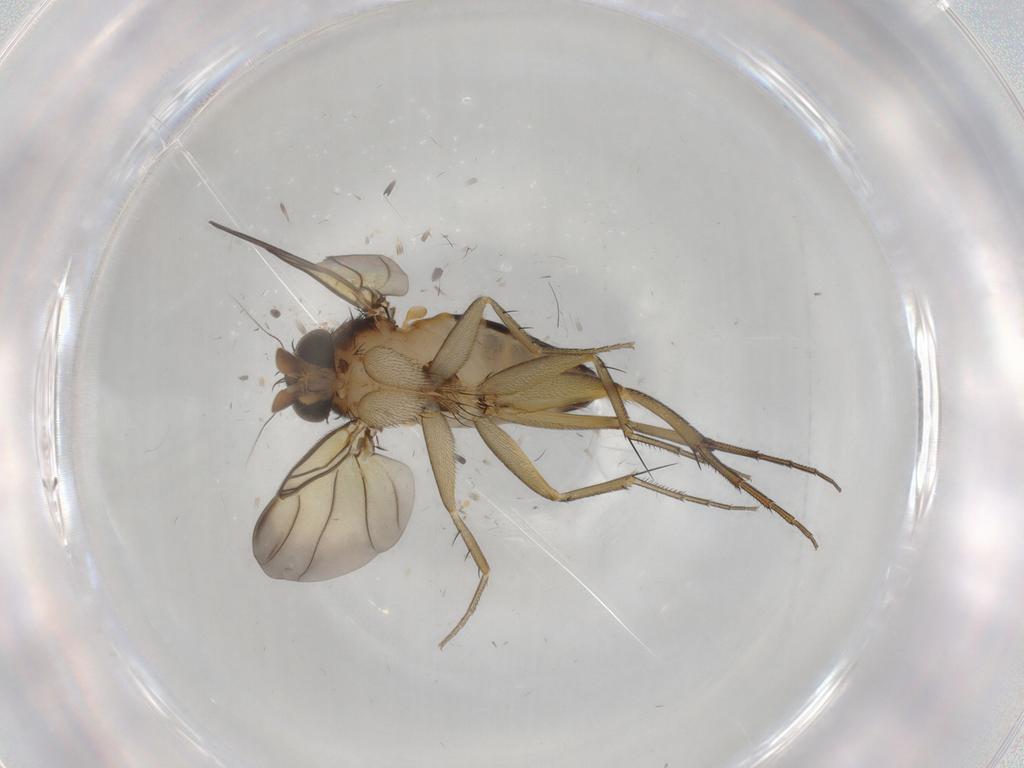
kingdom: Animalia
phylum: Arthropoda
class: Insecta
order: Diptera
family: Phoridae
